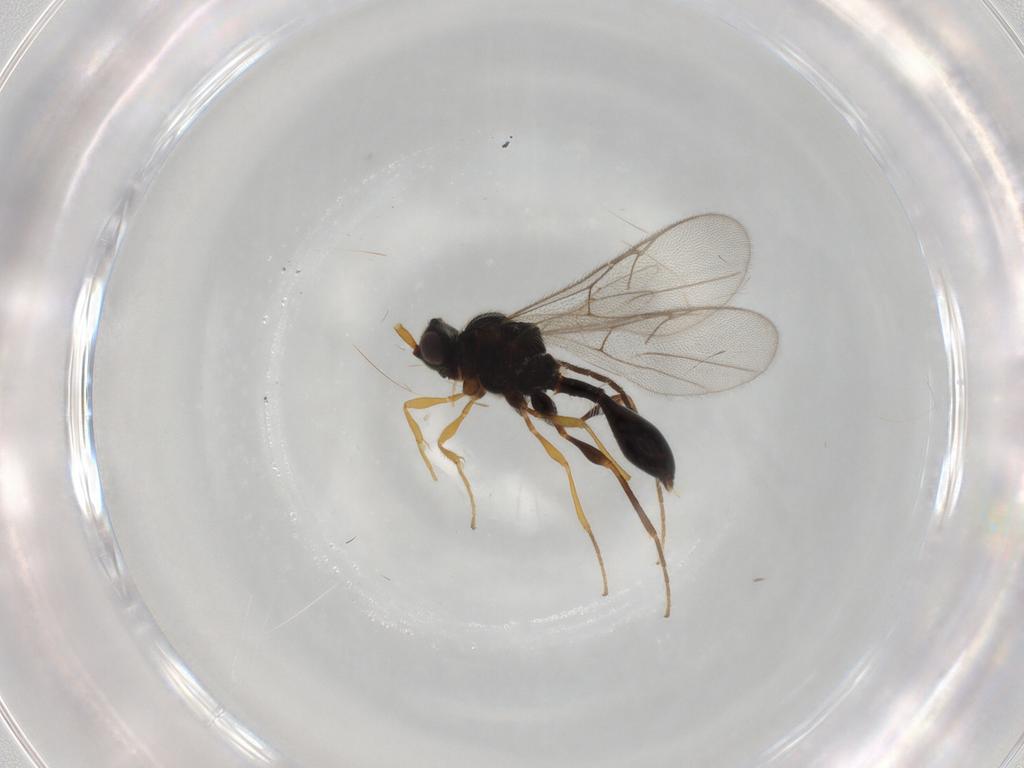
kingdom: Animalia
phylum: Arthropoda
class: Insecta
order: Hymenoptera
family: Diapriidae
